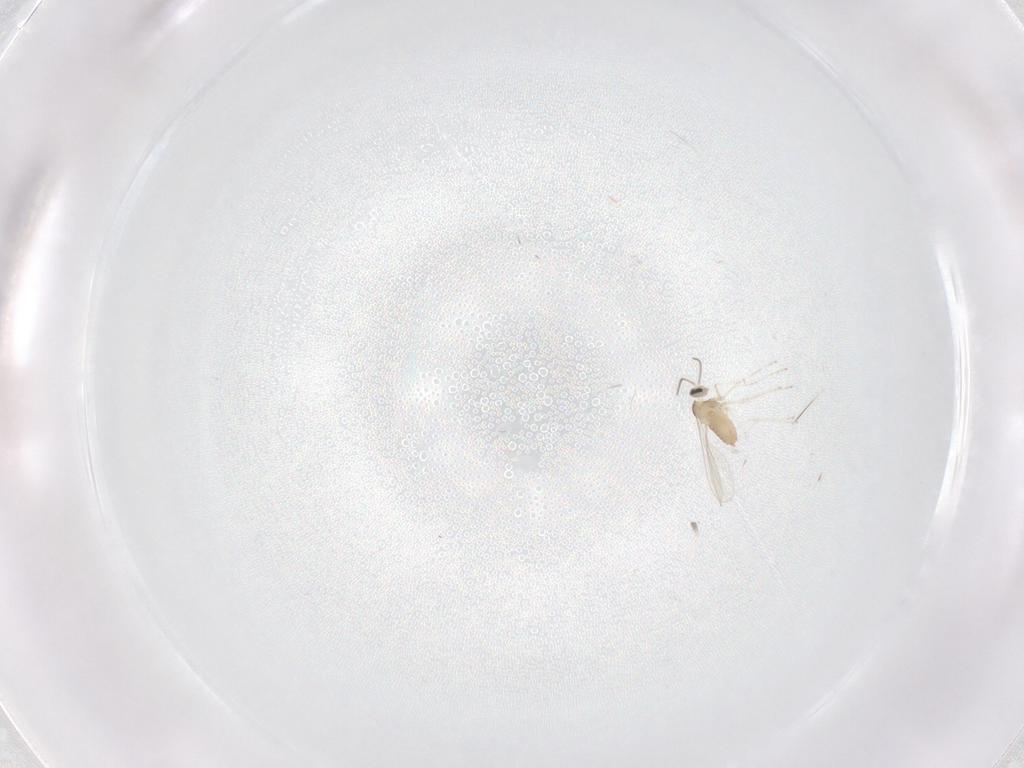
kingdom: Animalia
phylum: Arthropoda
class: Insecta
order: Diptera
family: Cecidomyiidae
